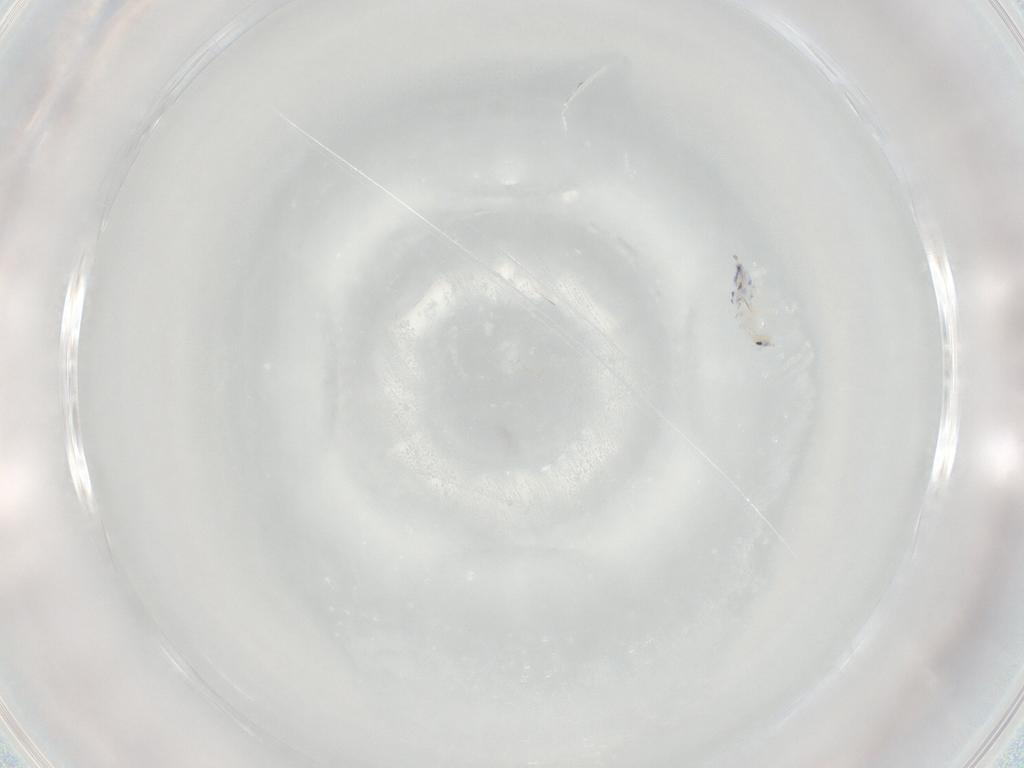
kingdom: Animalia
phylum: Arthropoda
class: Collembola
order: Entomobryomorpha
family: Entomobryidae
